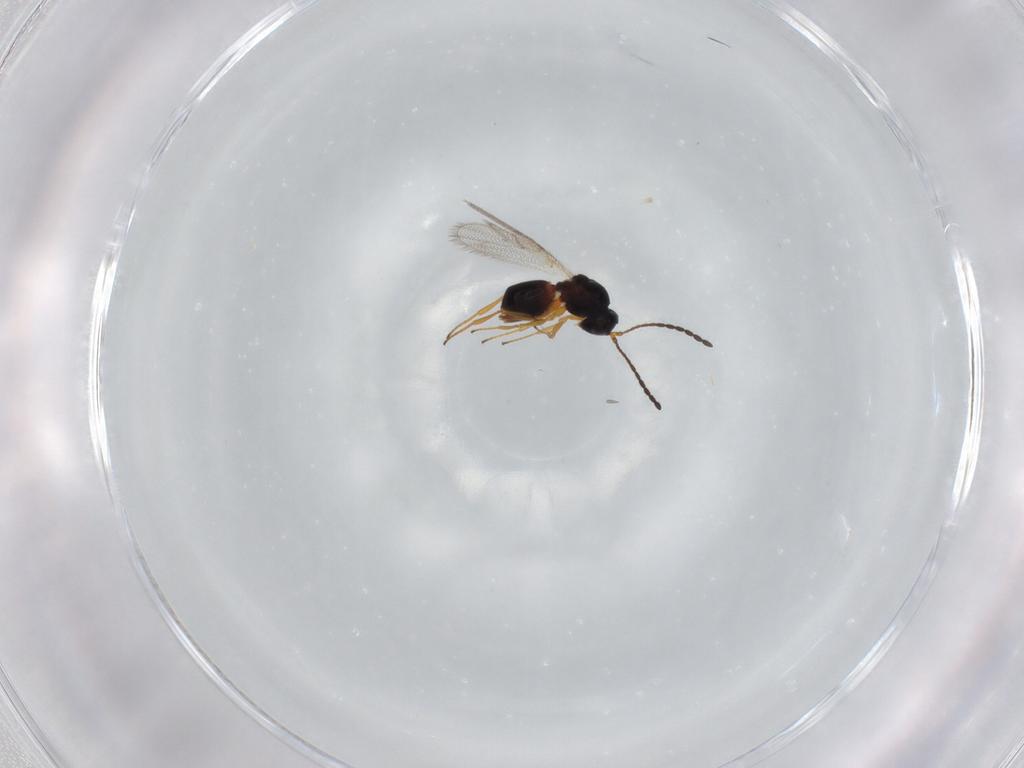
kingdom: Animalia
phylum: Arthropoda
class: Insecta
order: Hymenoptera
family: Figitidae
